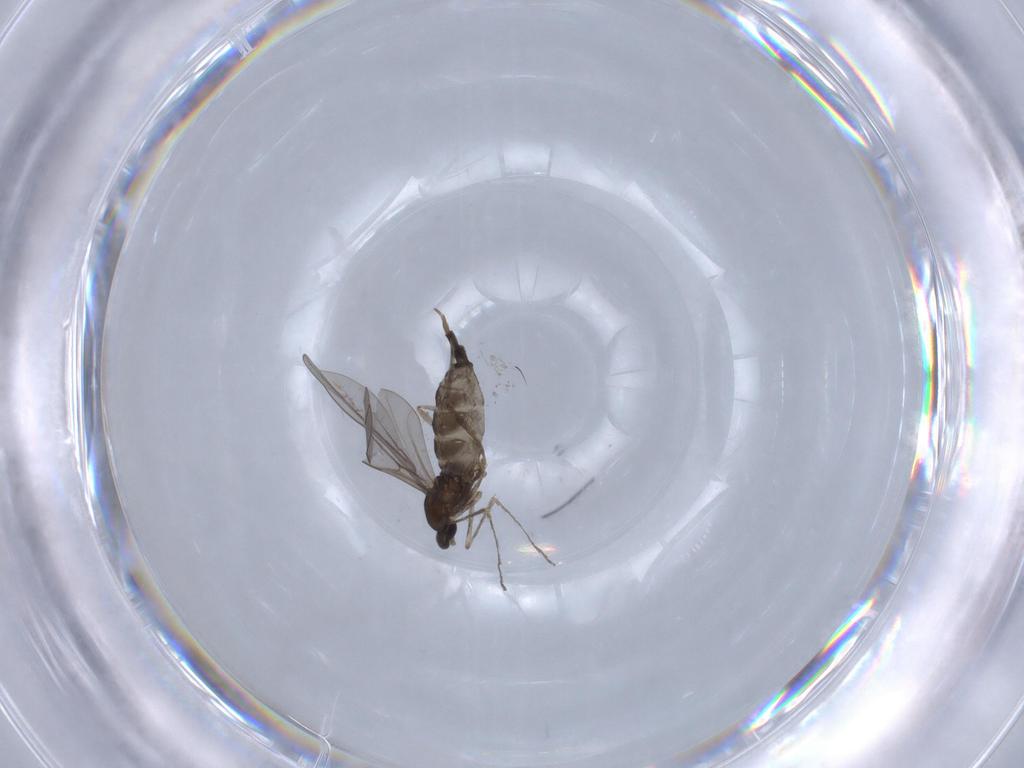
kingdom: Animalia
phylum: Arthropoda
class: Insecta
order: Diptera
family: Cecidomyiidae
